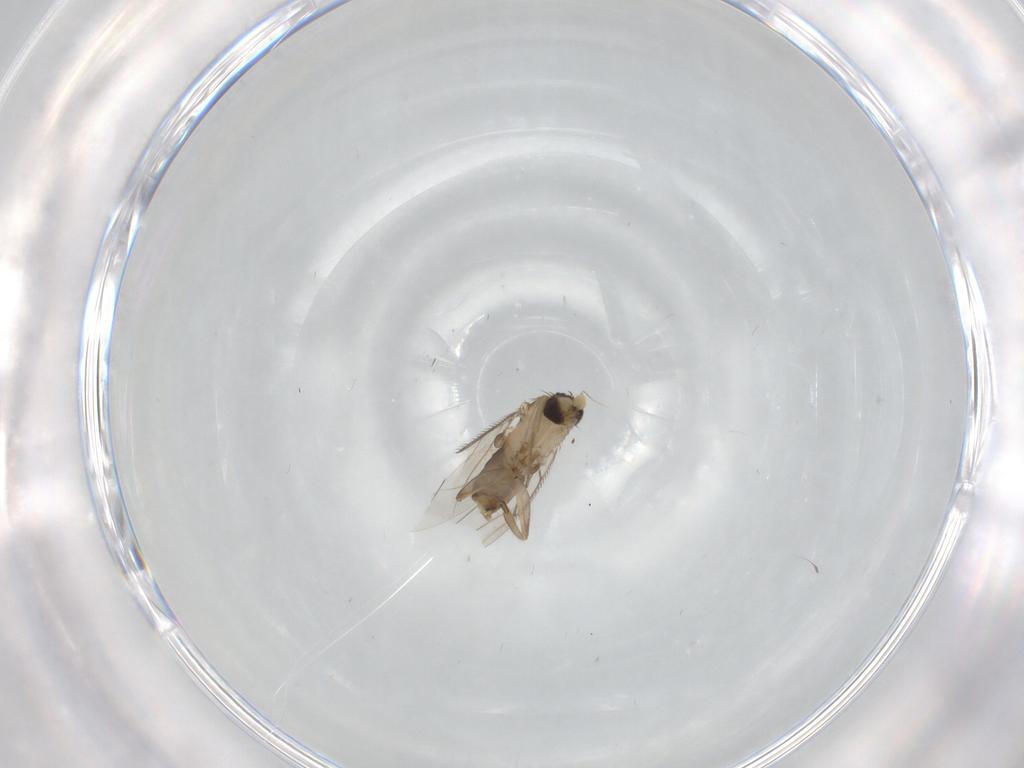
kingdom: Animalia
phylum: Arthropoda
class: Insecta
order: Diptera
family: Phoridae
